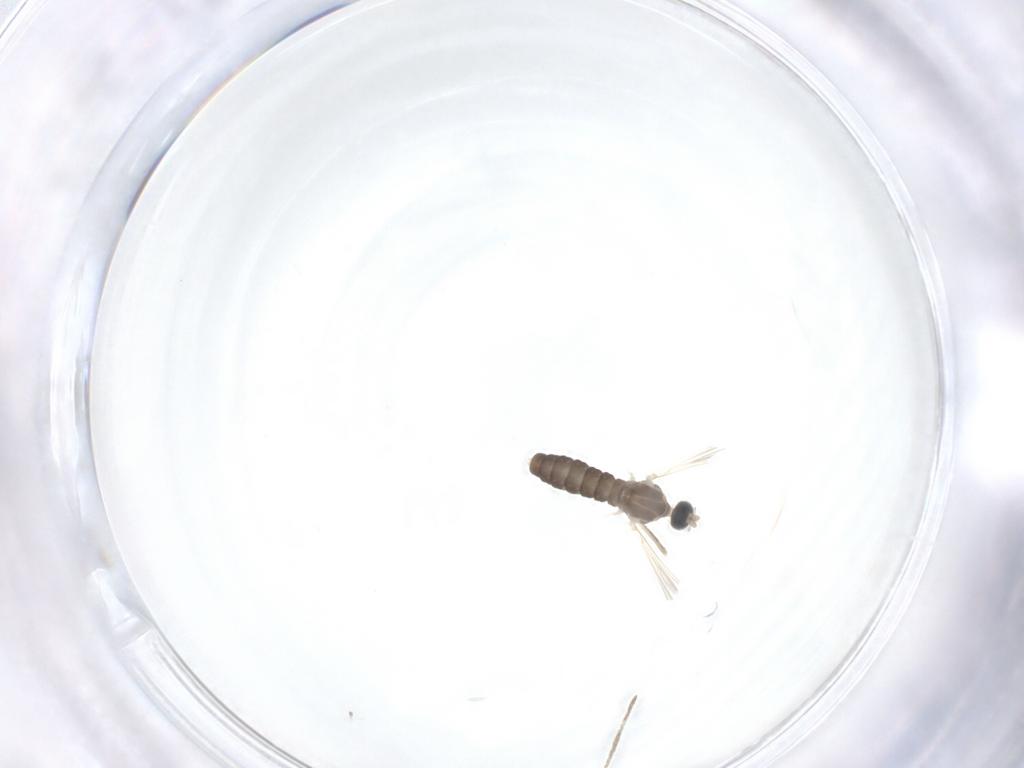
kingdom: Animalia
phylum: Arthropoda
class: Insecta
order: Diptera
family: Cecidomyiidae
